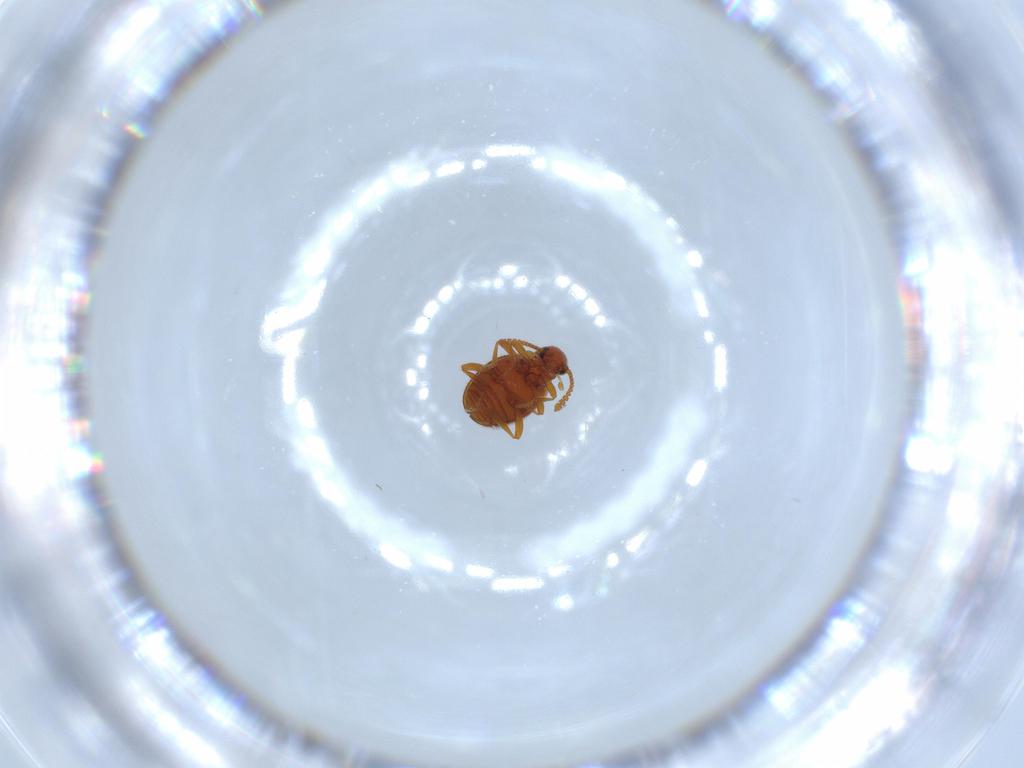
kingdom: Animalia
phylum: Arthropoda
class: Insecta
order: Coleoptera
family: Aderidae
